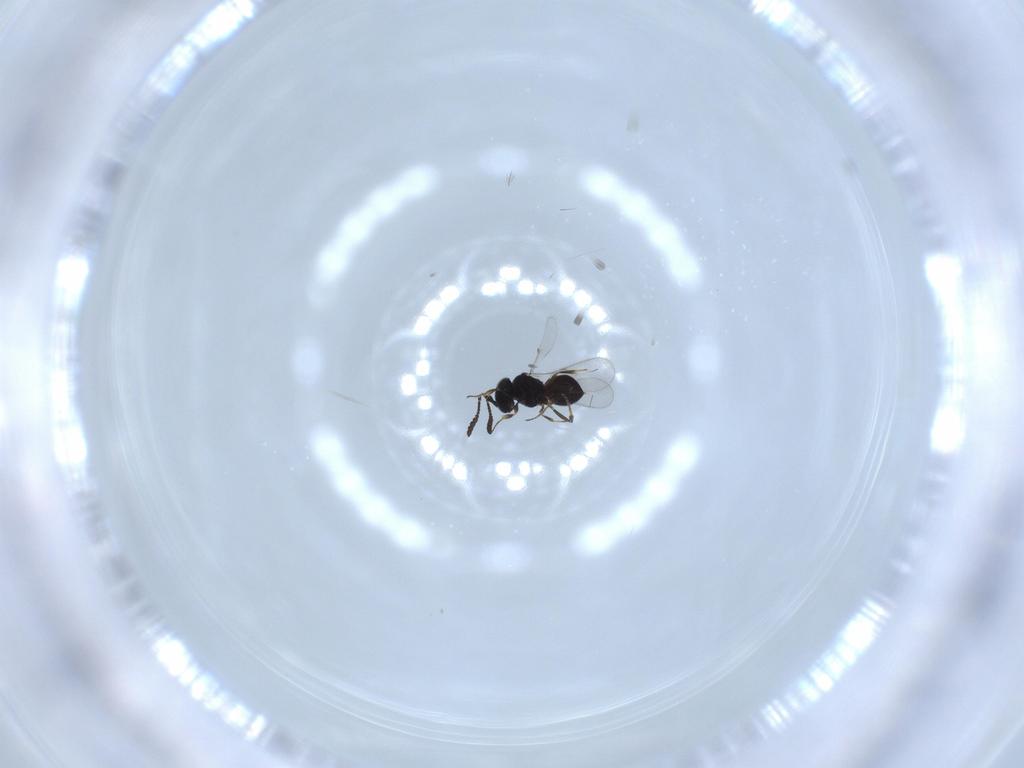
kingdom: Animalia
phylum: Arthropoda
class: Insecta
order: Hymenoptera
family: Scelionidae
